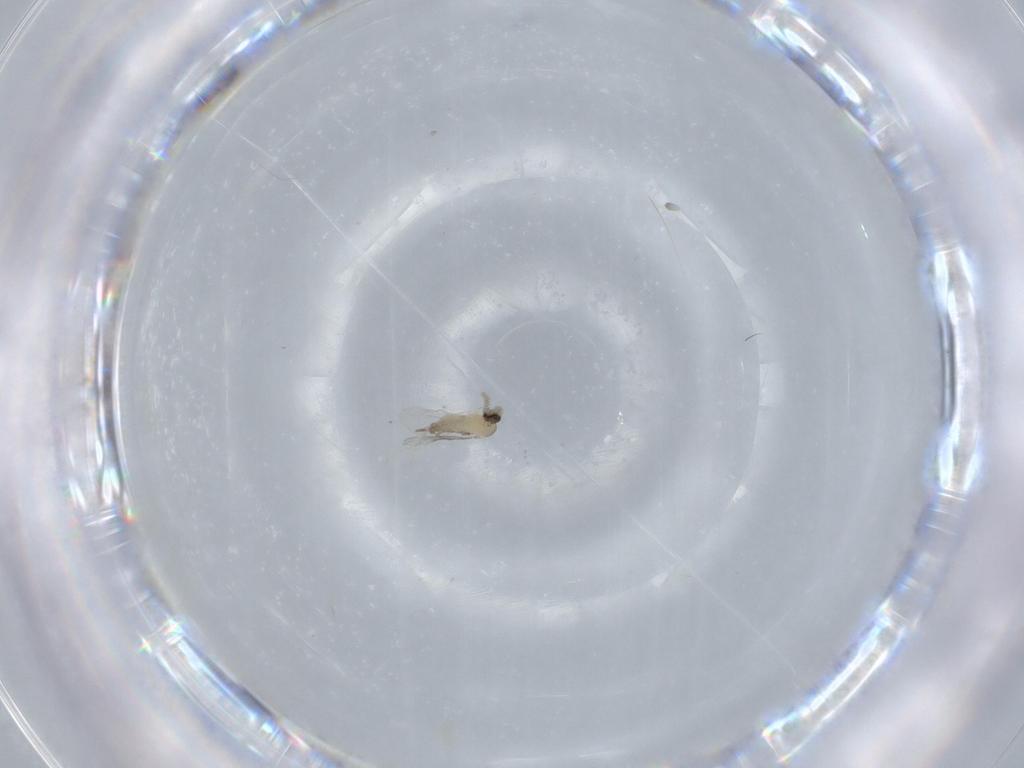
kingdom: Animalia
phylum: Arthropoda
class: Insecta
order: Diptera
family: Cecidomyiidae
